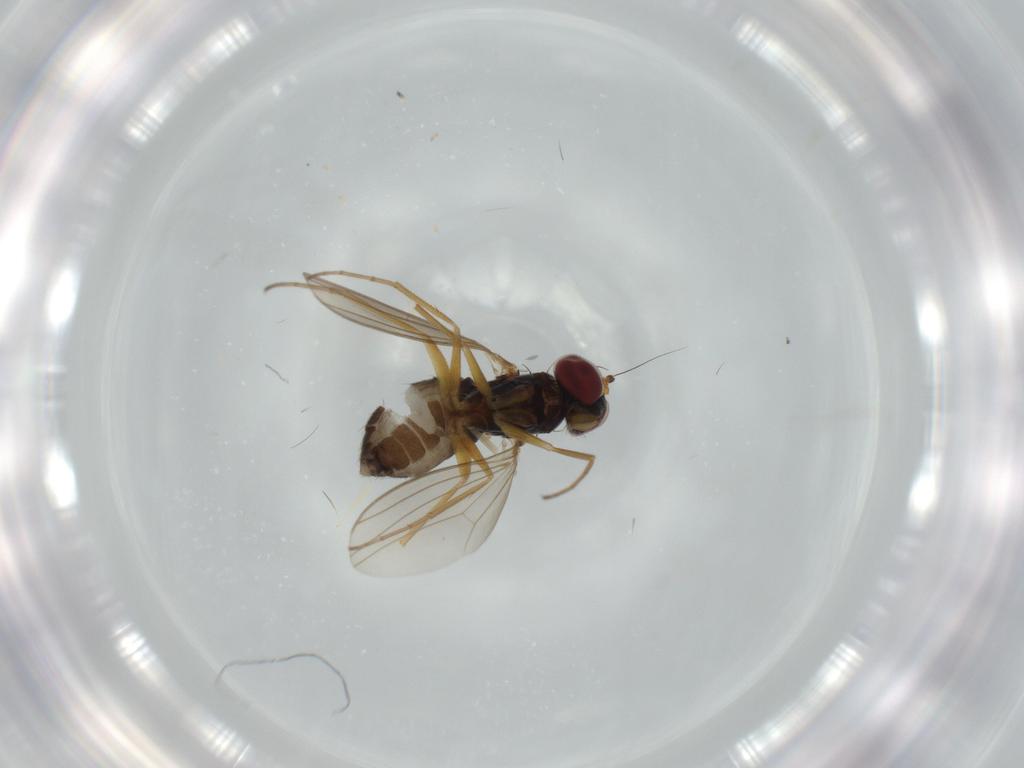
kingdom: Animalia
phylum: Arthropoda
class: Insecta
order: Diptera
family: Dolichopodidae
